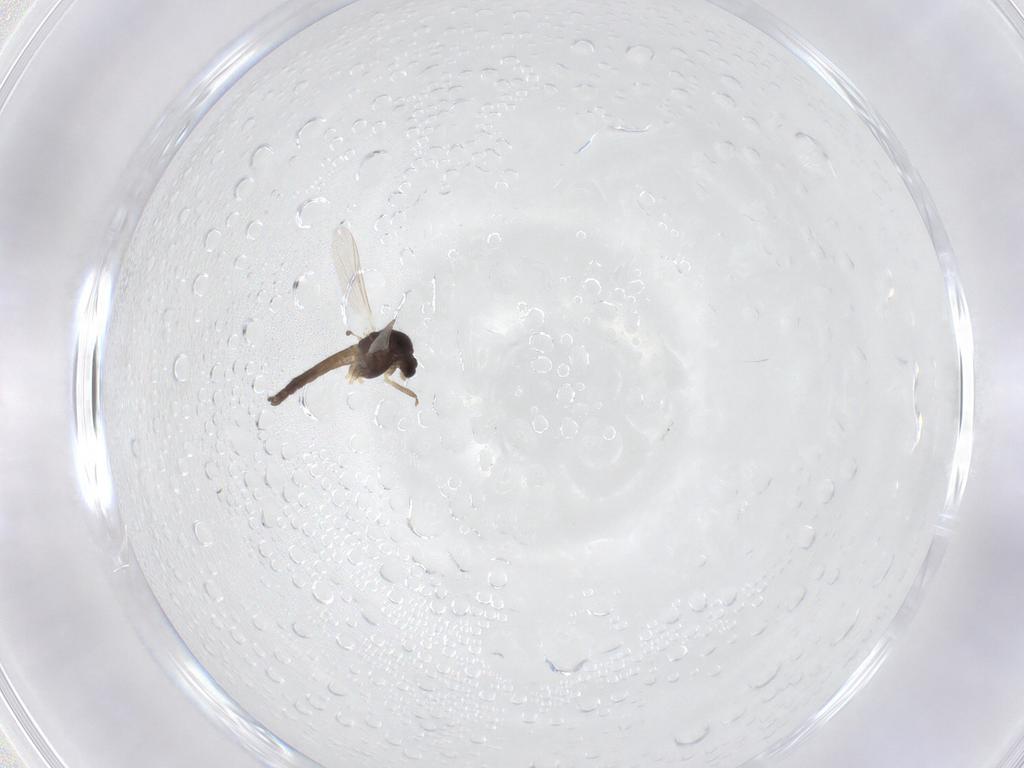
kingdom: Animalia
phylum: Arthropoda
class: Insecta
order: Diptera
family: Chironomidae
